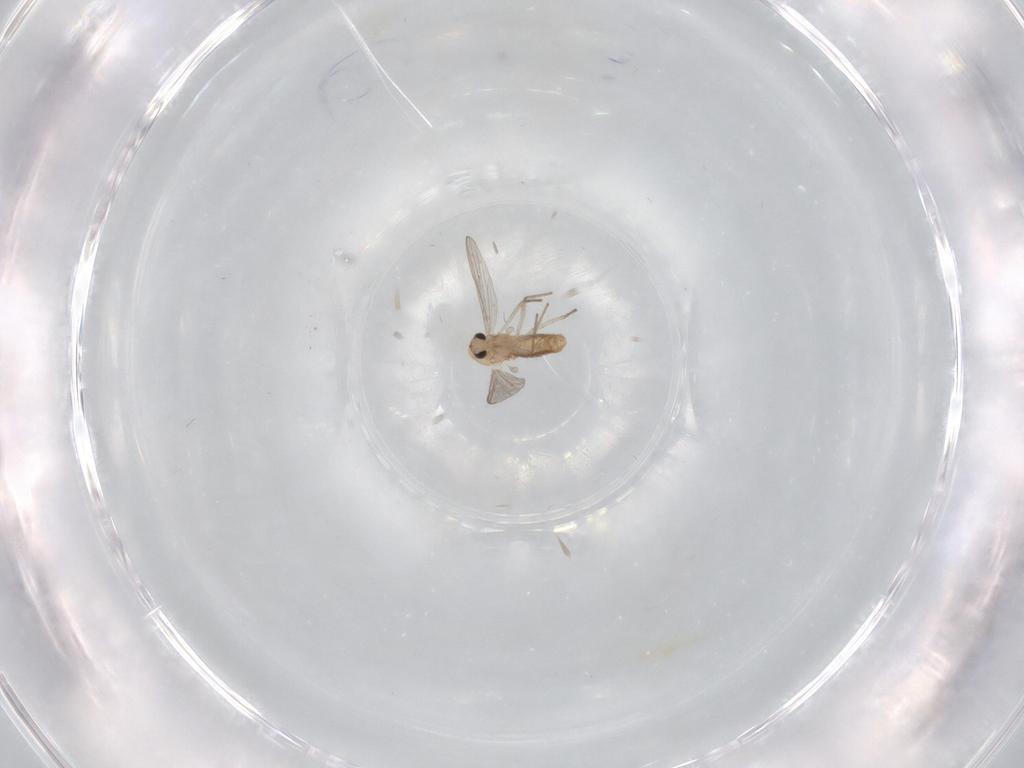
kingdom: Animalia
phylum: Arthropoda
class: Insecta
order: Diptera
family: Chironomidae
